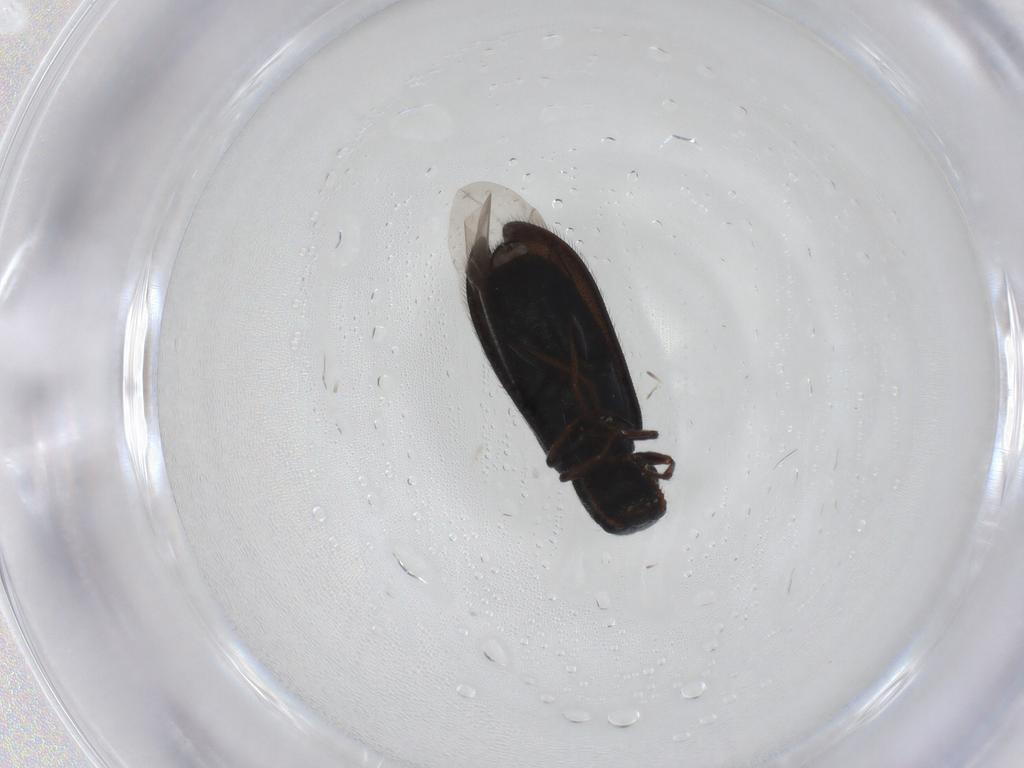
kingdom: Animalia
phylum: Arthropoda
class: Insecta
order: Coleoptera
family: Melyridae
